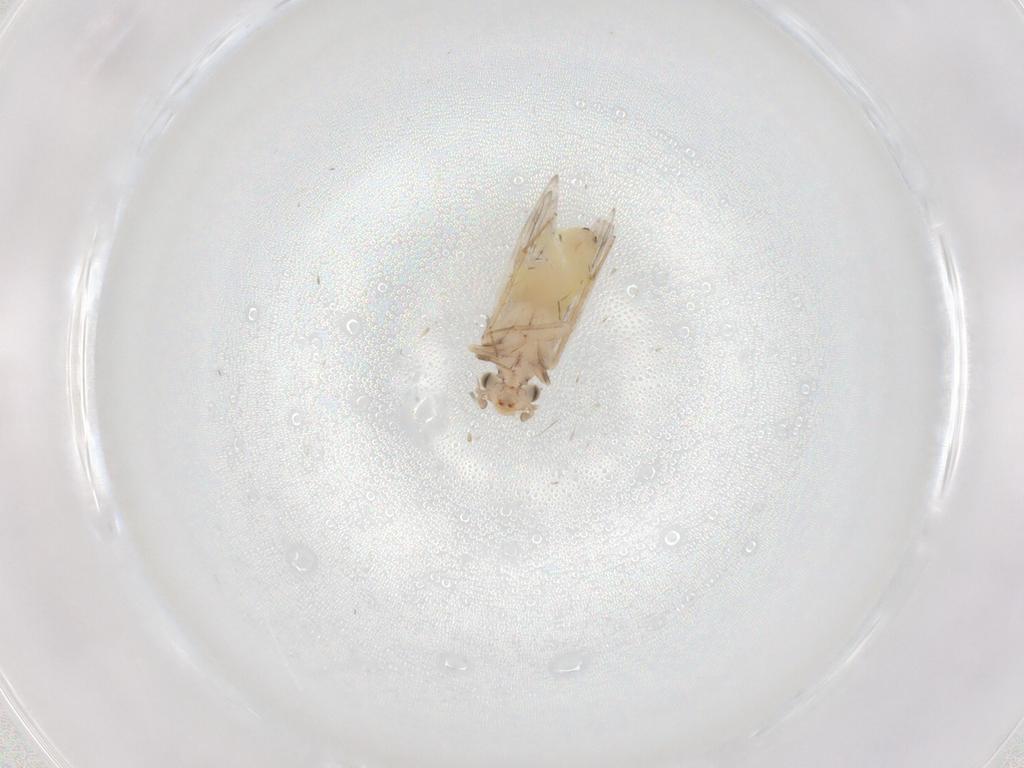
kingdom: Animalia
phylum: Arthropoda
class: Insecta
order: Psocodea
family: Lepidopsocidae
